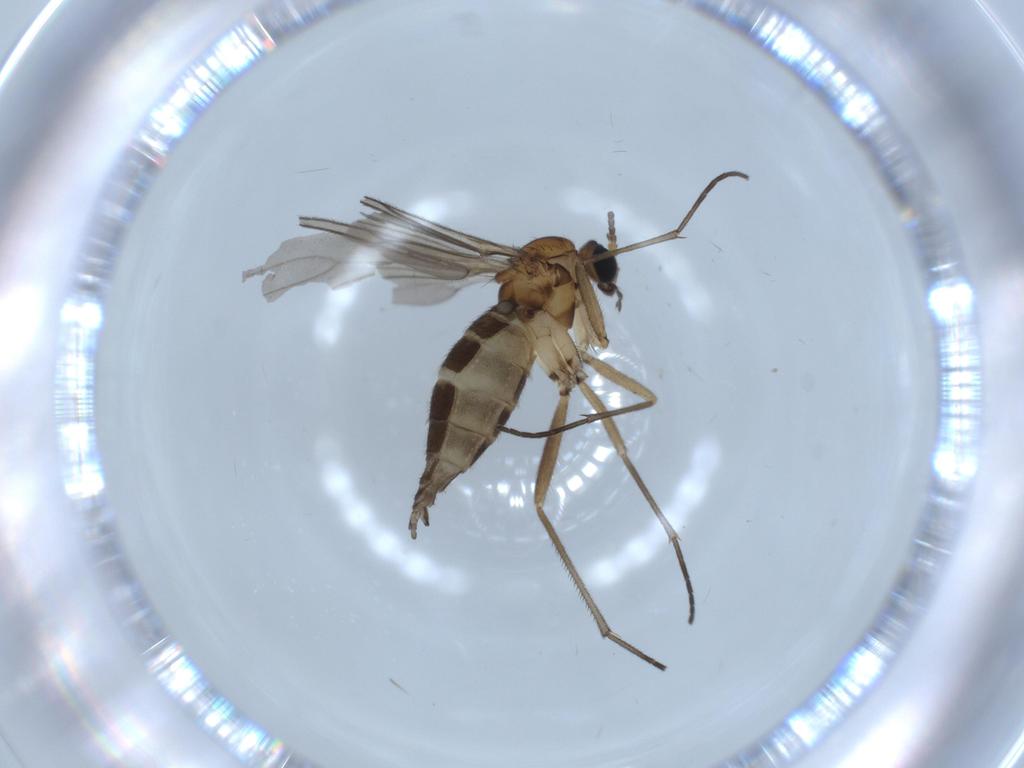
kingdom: Animalia
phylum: Arthropoda
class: Insecta
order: Diptera
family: Sciaridae
